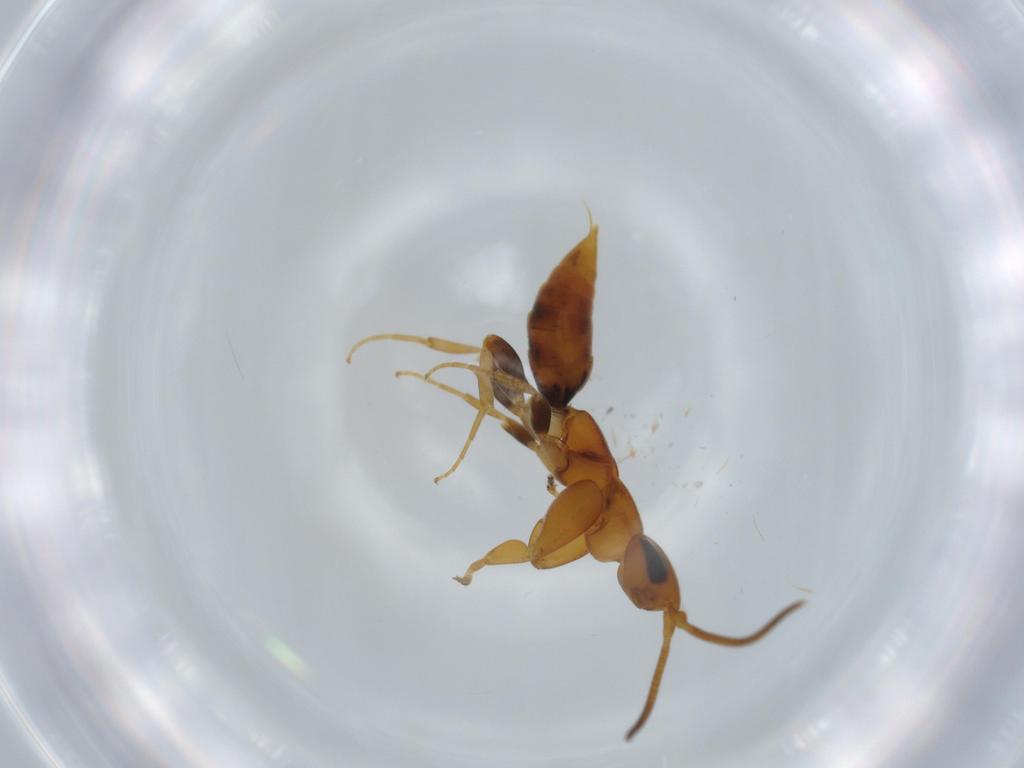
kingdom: Animalia
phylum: Arthropoda
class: Insecta
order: Hymenoptera
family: Sclerogibbidae
